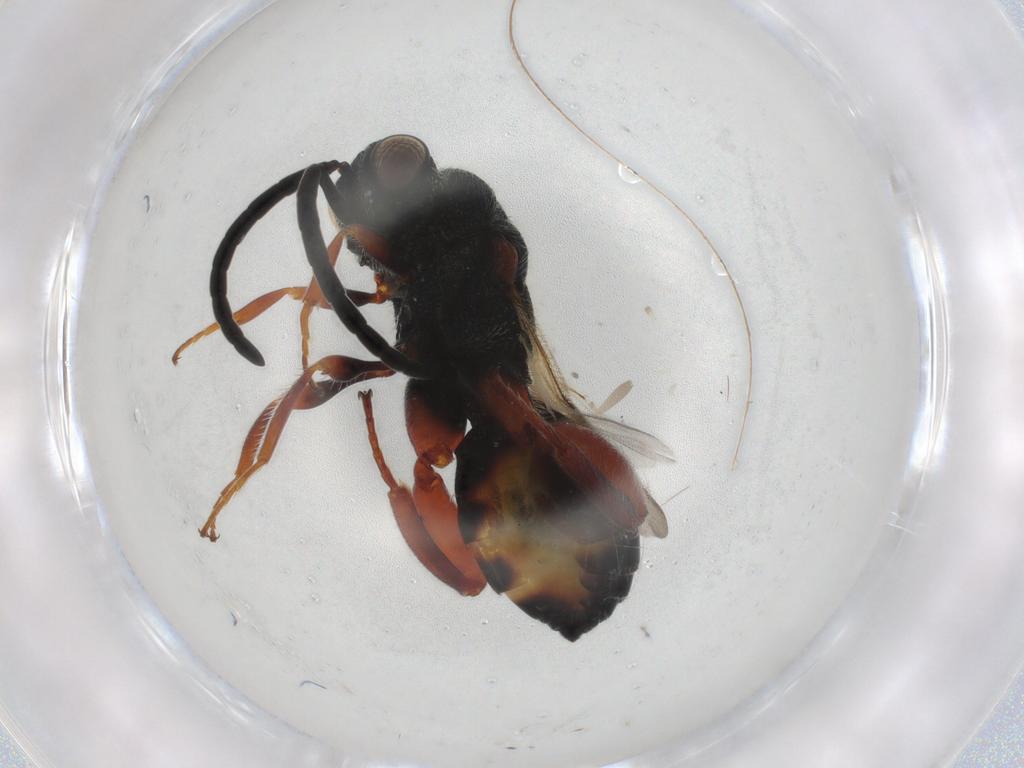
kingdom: Animalia
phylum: Arthropoda
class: Insecta
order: Hymenoptera
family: Chalcididae
